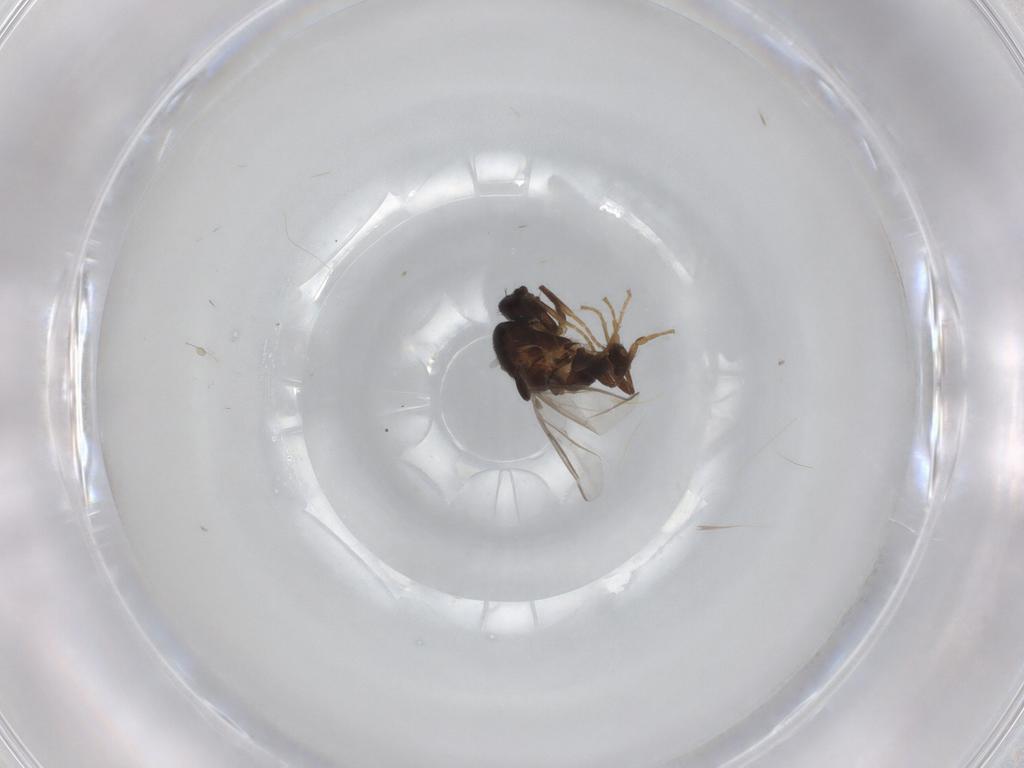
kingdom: Animalia
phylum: Arthropoda
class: Insecta
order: Diptera
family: Sphaeroceridae
